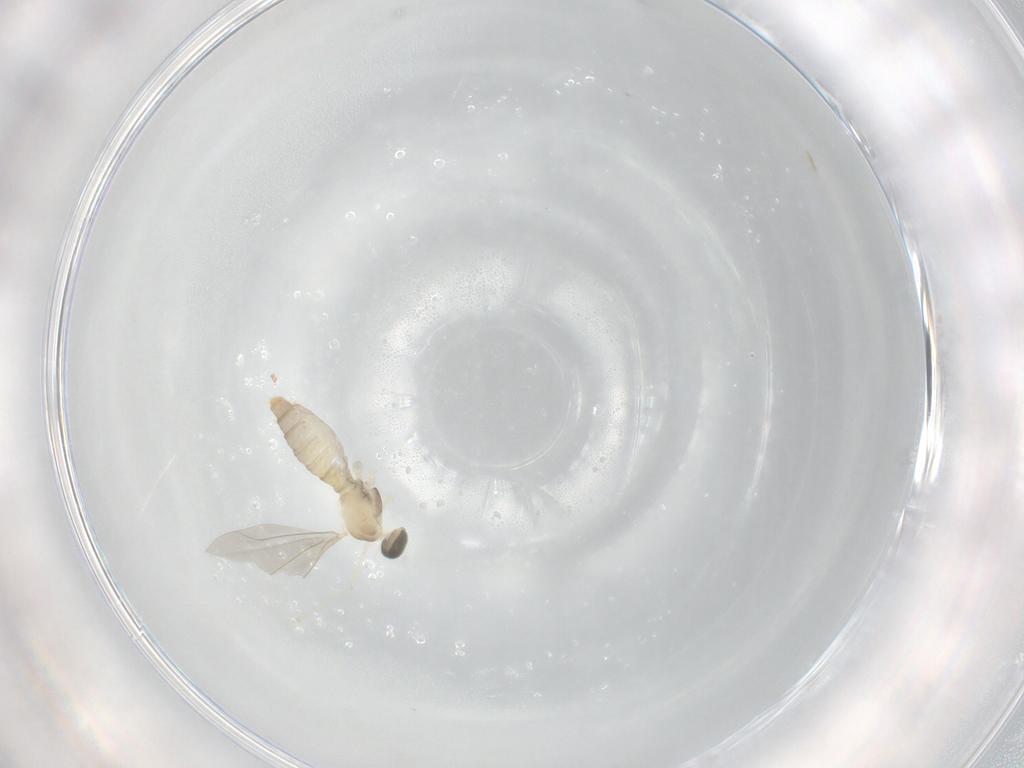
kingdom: Animalia
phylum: Arthropoda
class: Insecta
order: Diptera
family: Cecidomyiidae
